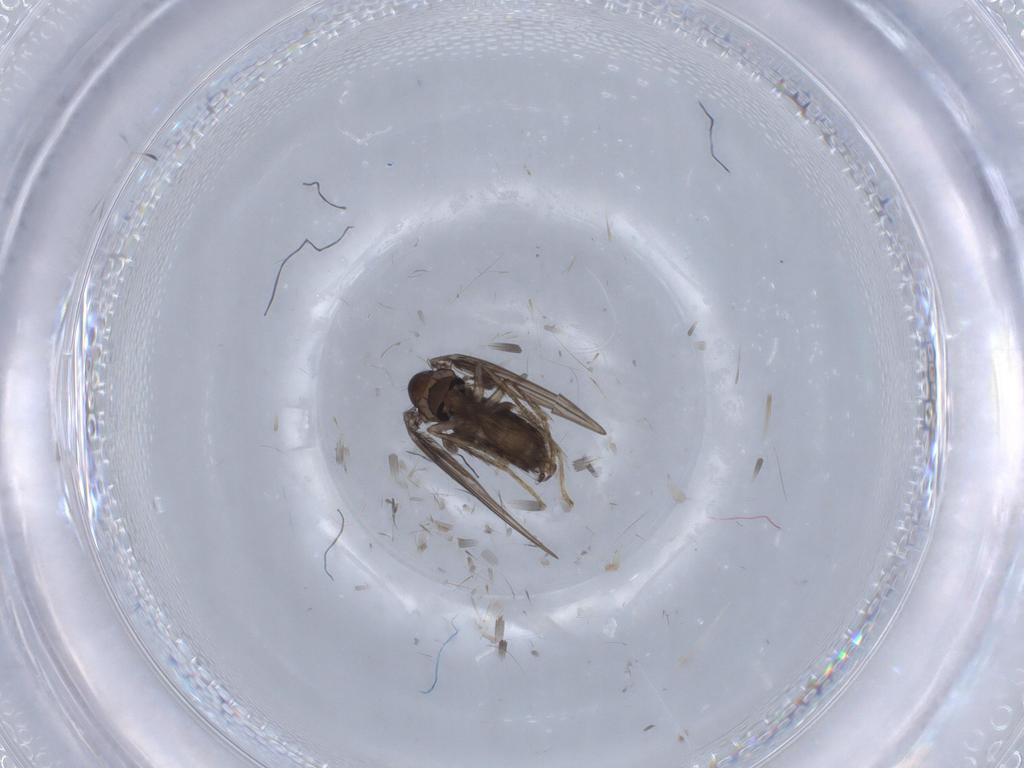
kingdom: Animalia
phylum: Arthropoda
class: Insecta
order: Diptera
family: Psychodidae
